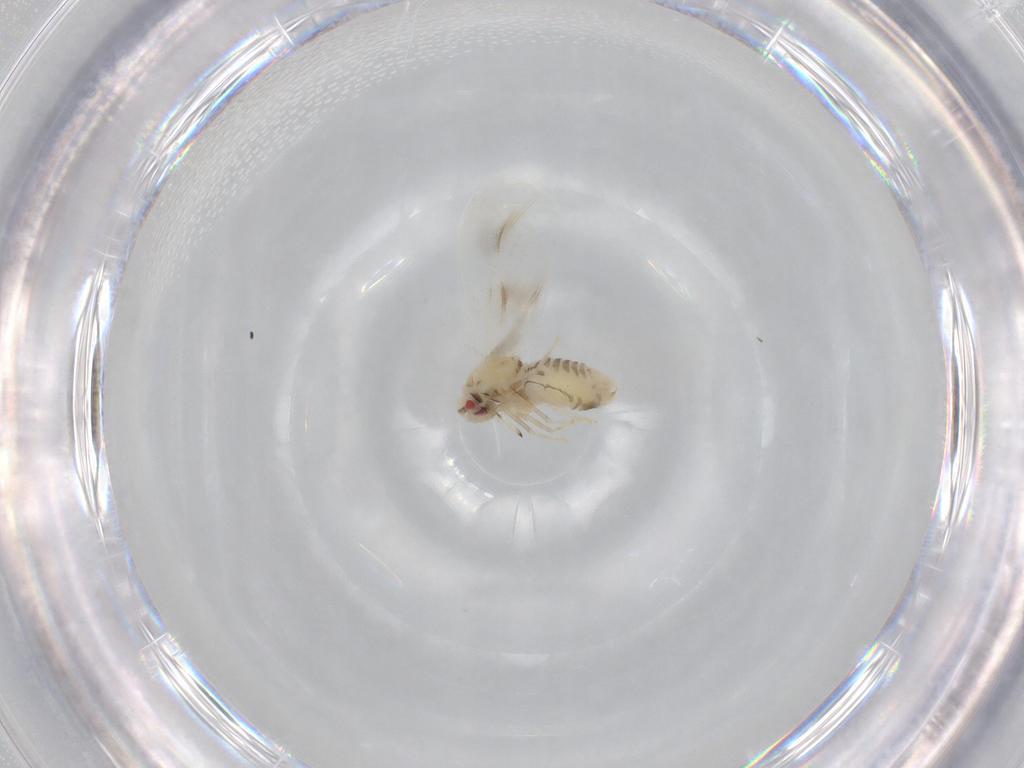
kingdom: Animalia
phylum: Arthropoda
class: Insecta
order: Hemiptera
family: Aleyrodidae
